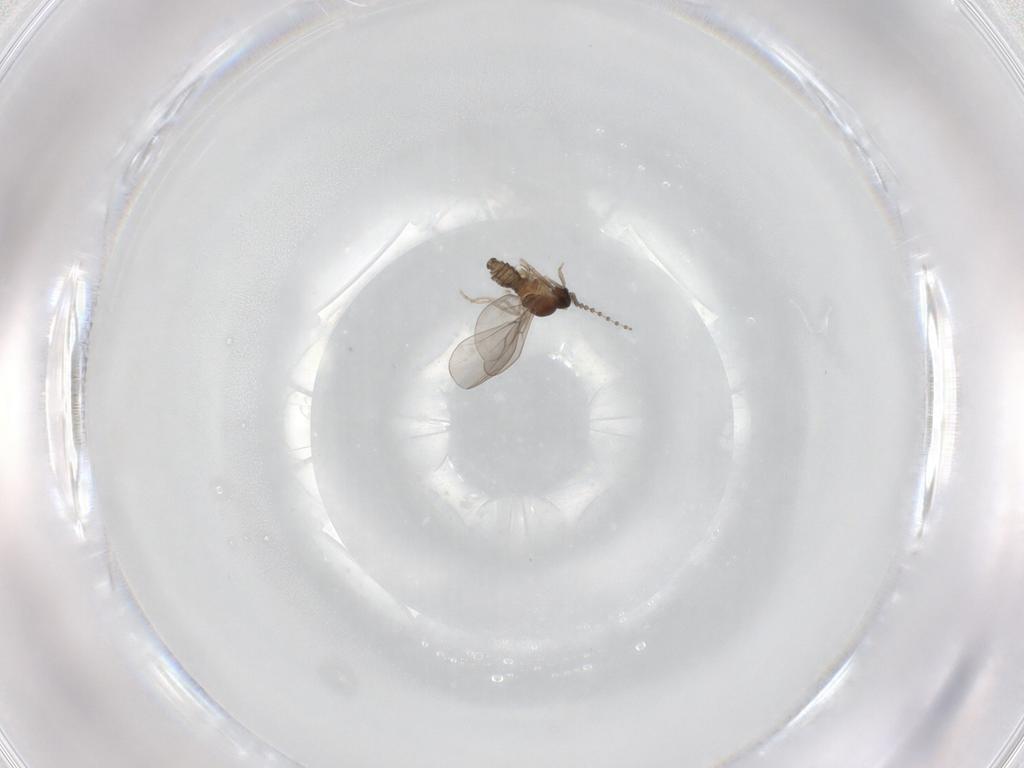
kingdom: Animalia
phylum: Arthropoda
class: Insecta
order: Diptera
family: Cecidomyiidae
